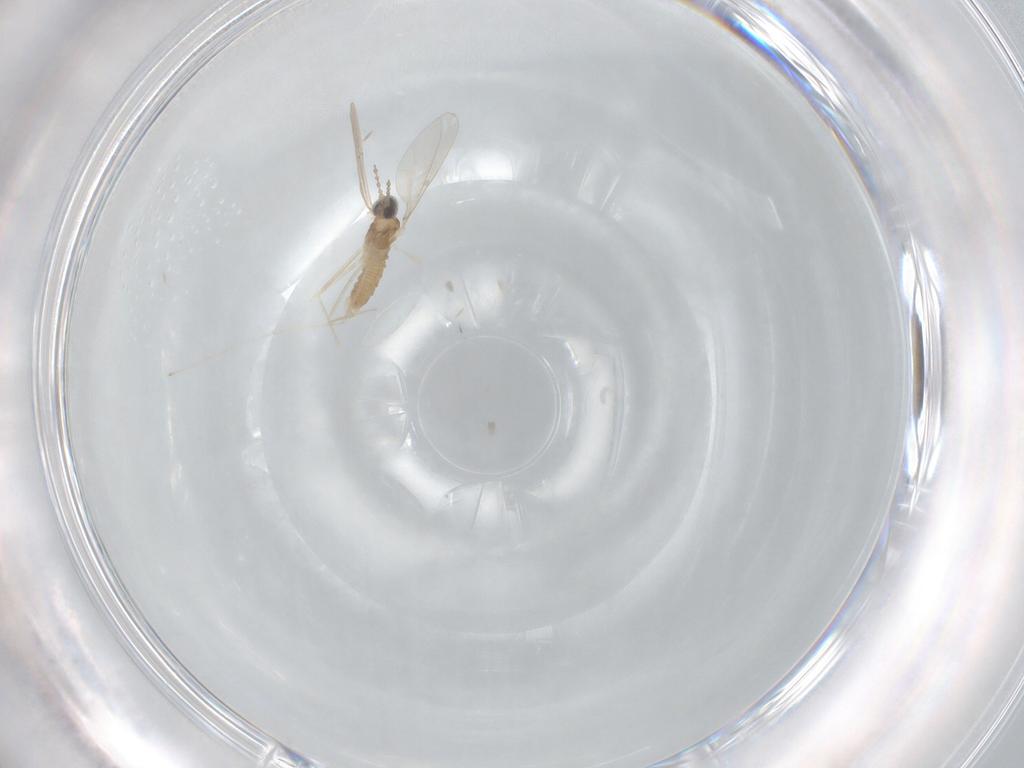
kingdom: Animalia
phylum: Arthropoda
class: Insecta
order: Diptera
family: Cecidomyiidae
